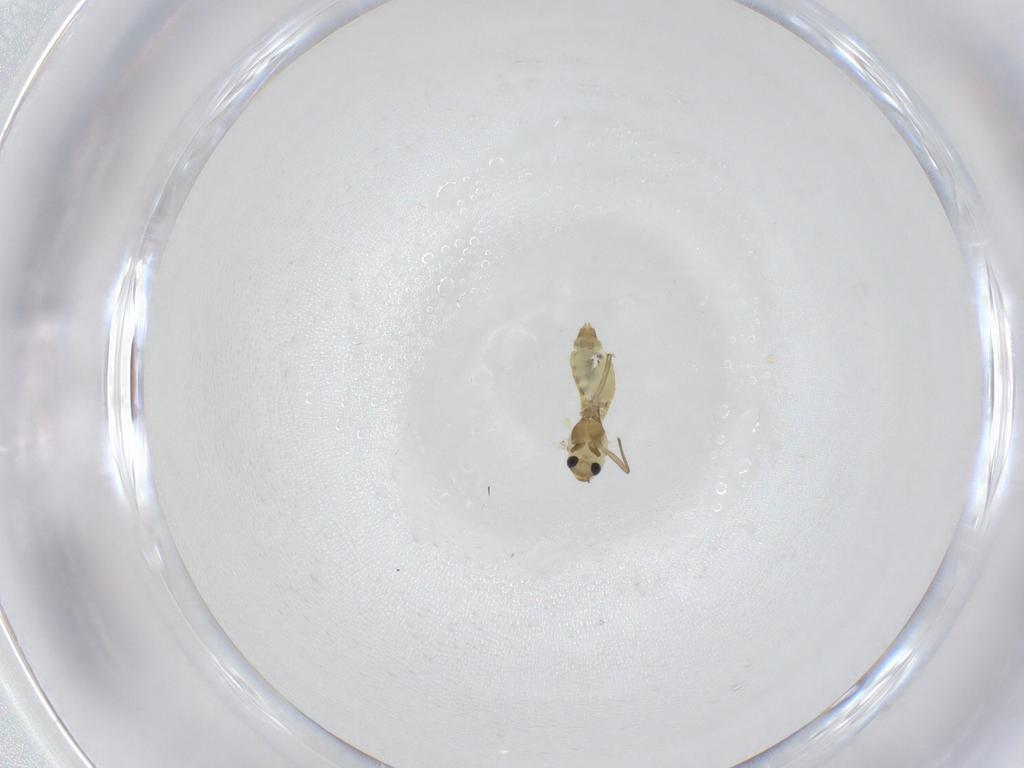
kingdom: Animalia
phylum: Arthropoda
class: Insecta
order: Diptera
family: Chironomidae
